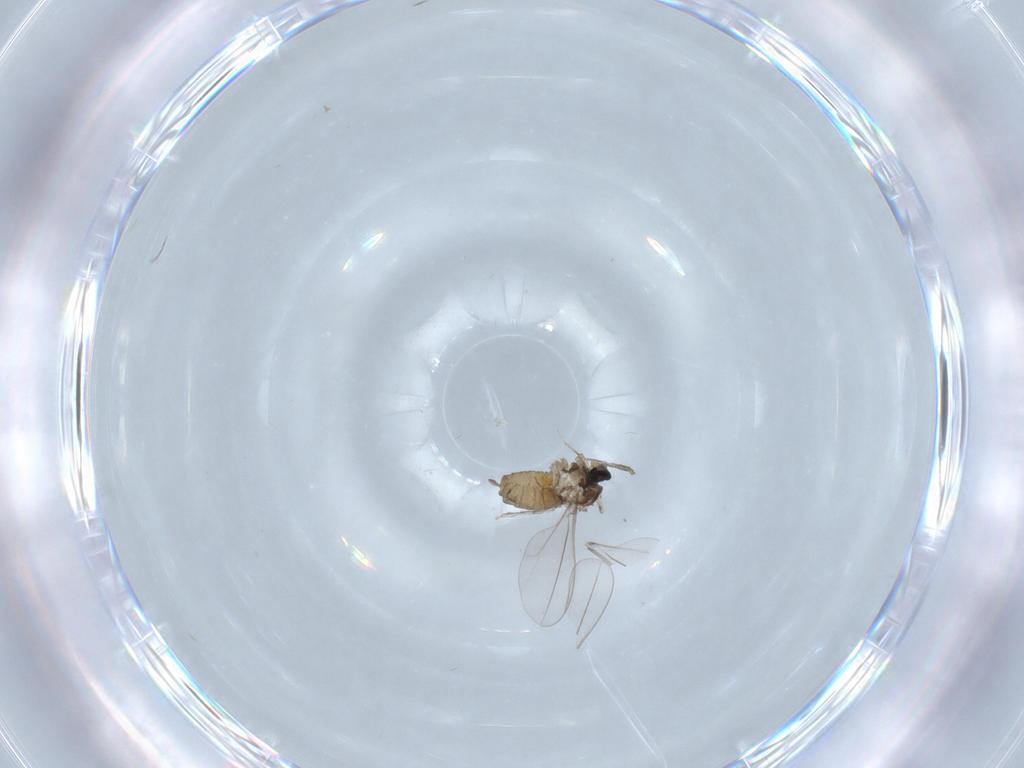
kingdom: Animalia
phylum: Arthropoda
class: Insecta
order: Diptera
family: Cecidomyiidae
